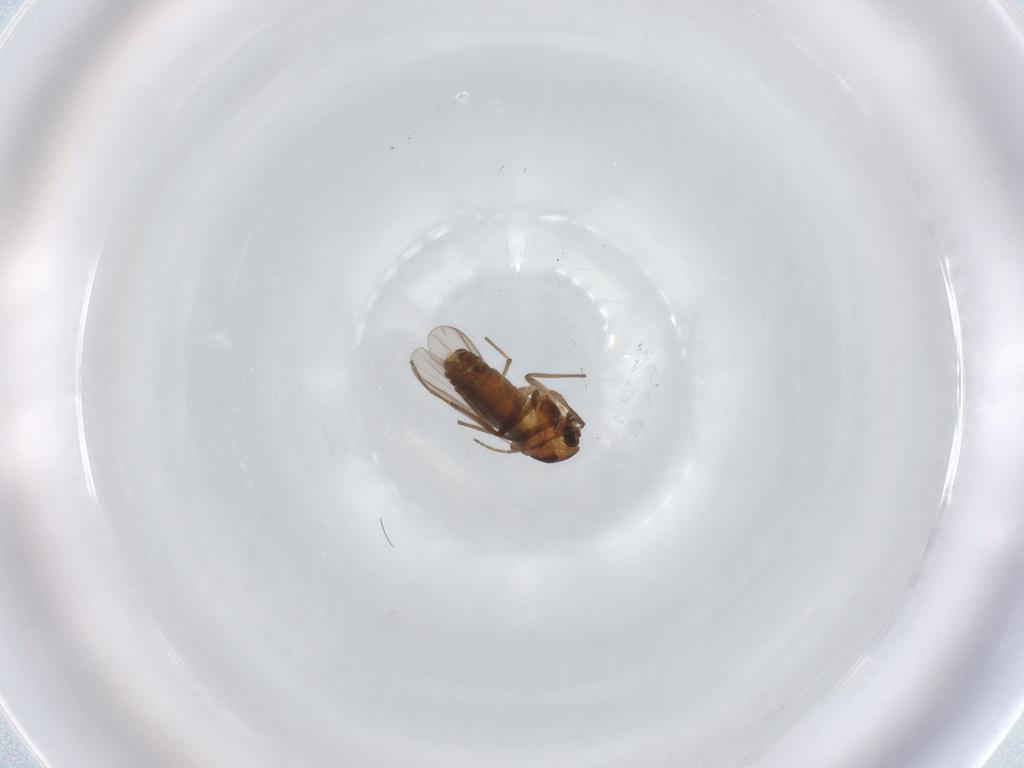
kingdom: Animalia
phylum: Arthropoda
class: Insecta
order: Diptera
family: Chironomidae
